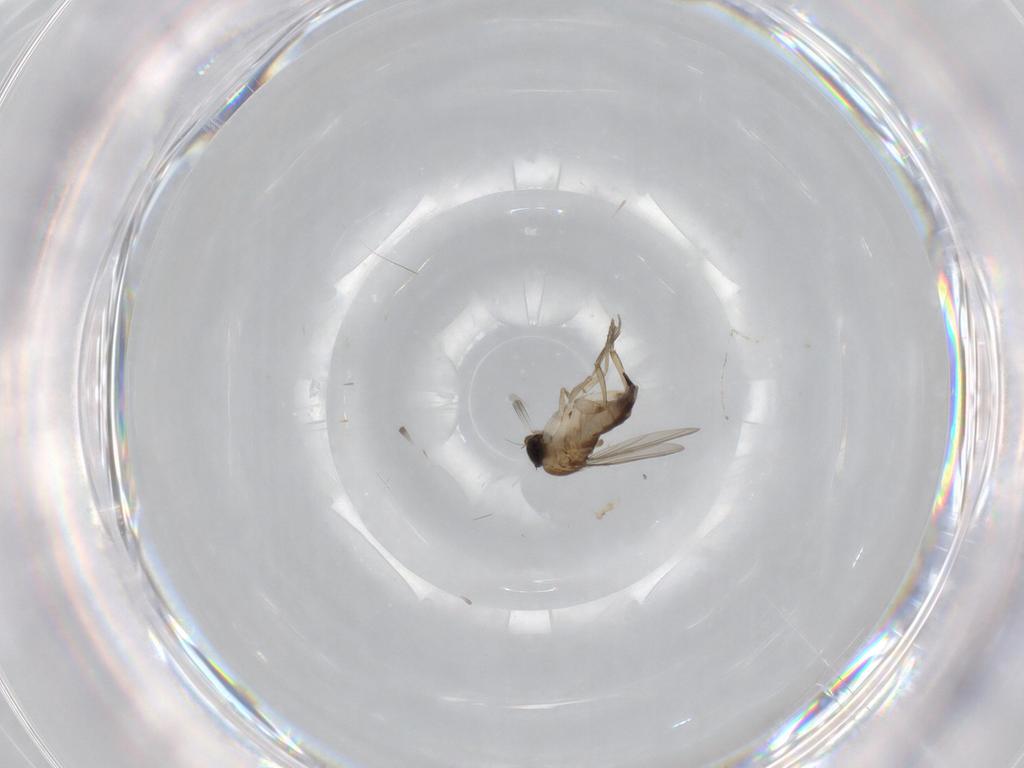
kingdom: Animalia
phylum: Arthropoda
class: Insecta
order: Diptera
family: Phoridae
